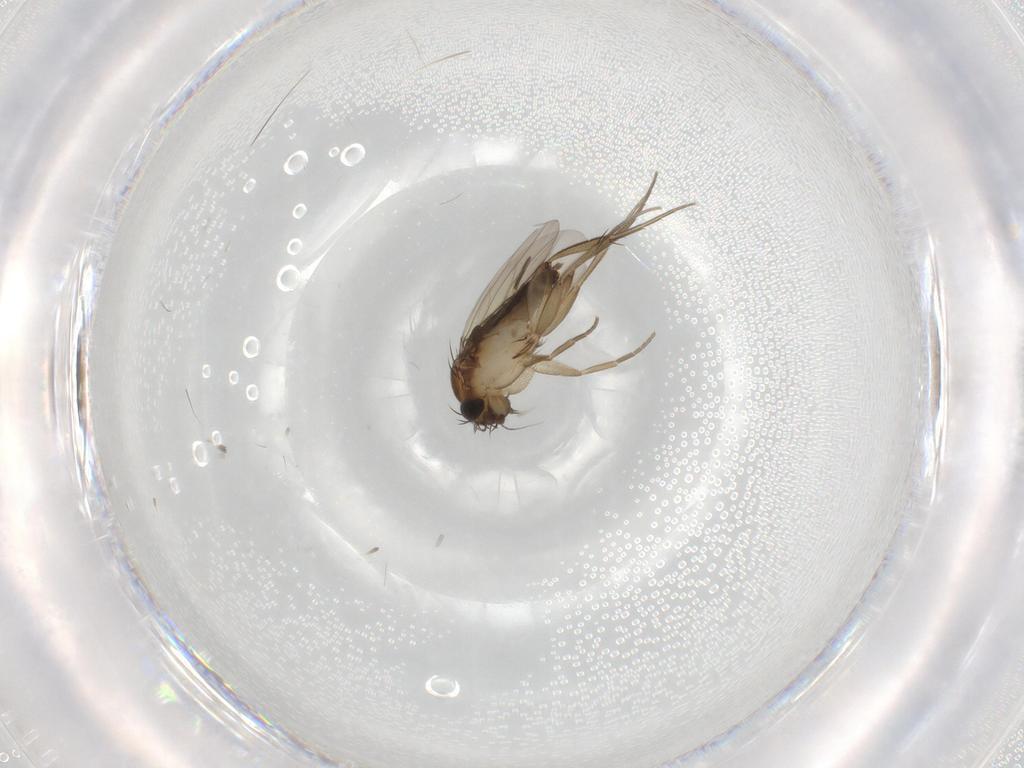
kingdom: Animalia
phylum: Arthropoda
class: Insecta
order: Diptera
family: Phoridae
